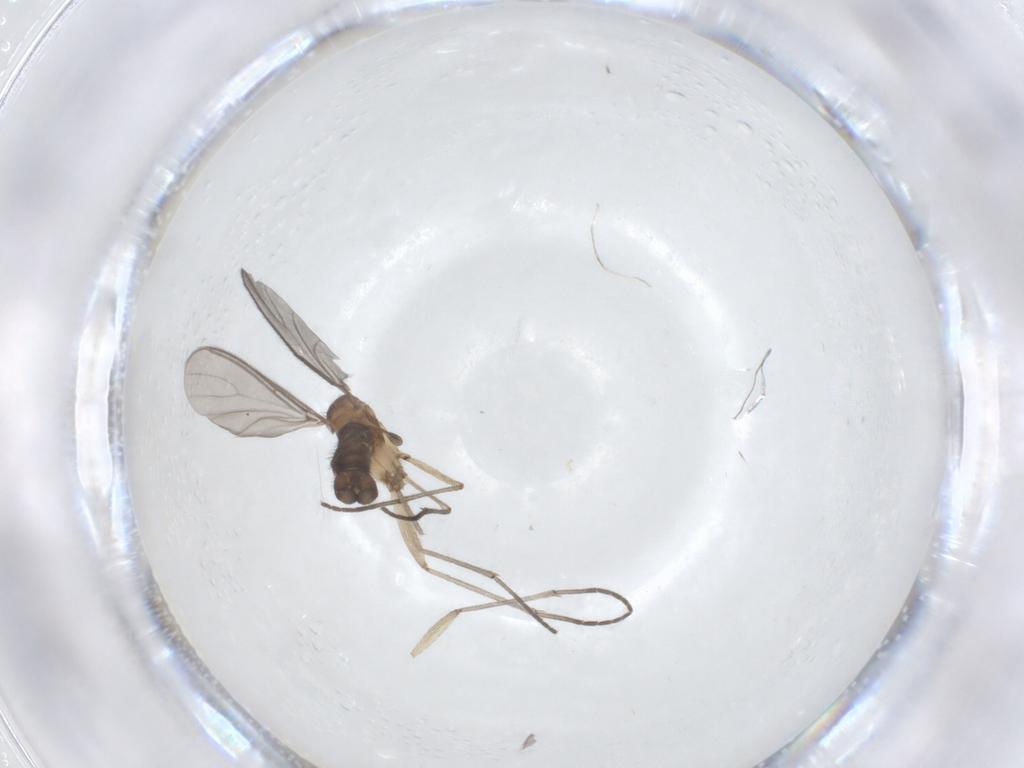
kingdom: Animalia
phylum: Arthropoda
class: Insecta
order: Diptera
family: Sciaridae
